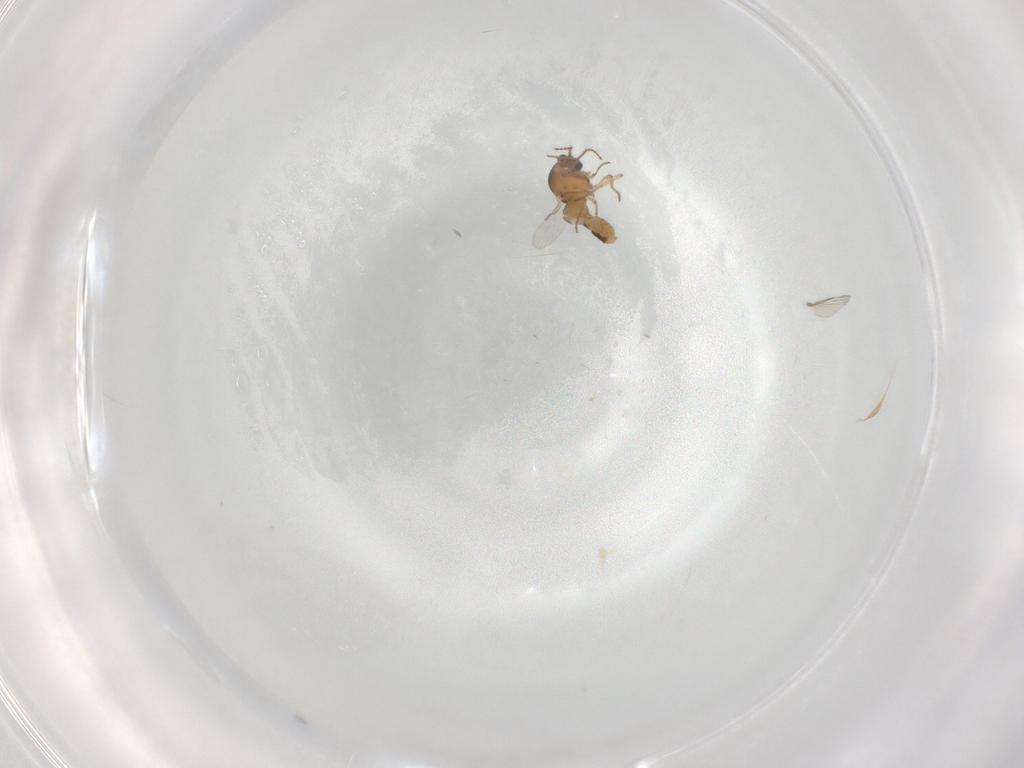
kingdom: Animalia
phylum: Arthropoda
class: Insecta
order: Diptera
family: Ceratopogonidae
